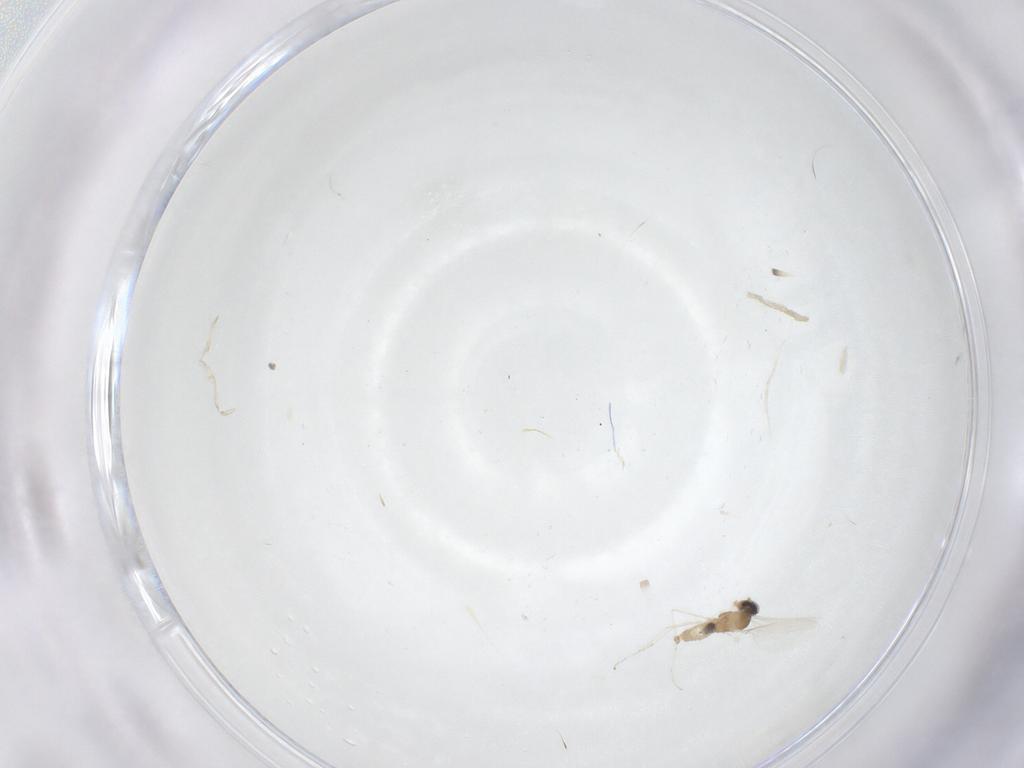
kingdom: Animalia
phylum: Arthropoda
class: Insecta
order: Diptera
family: Cecidomyiidae
